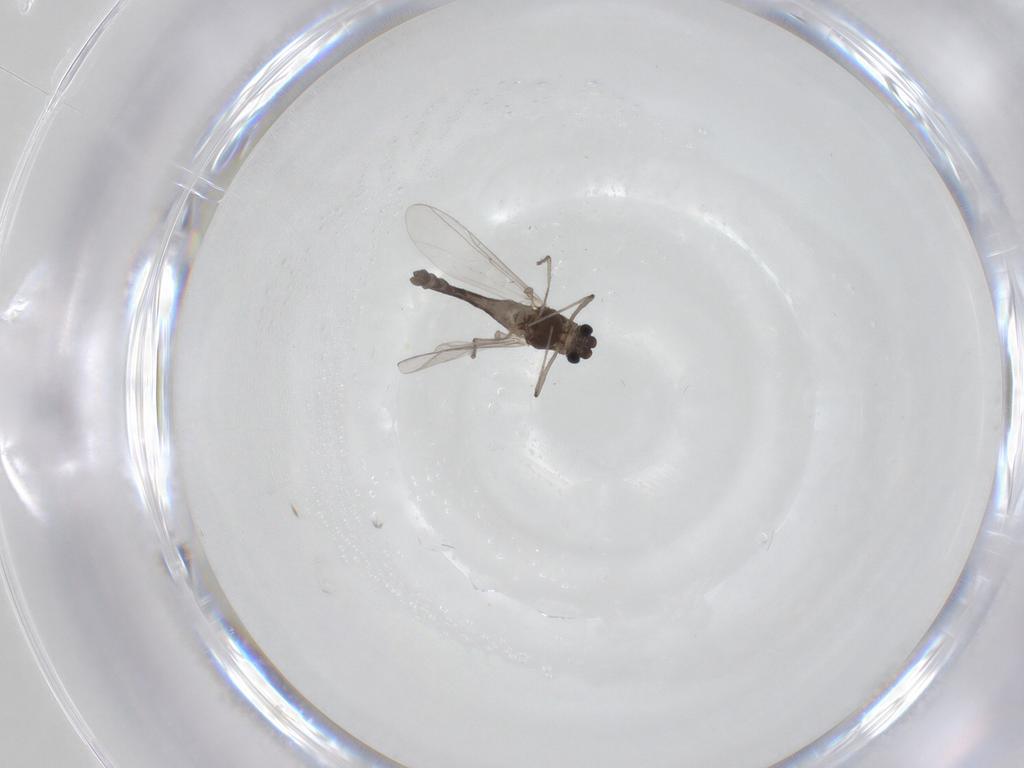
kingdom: Animalia
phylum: Arthropoda
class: Insecta
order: Diptera
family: Chironomidae
